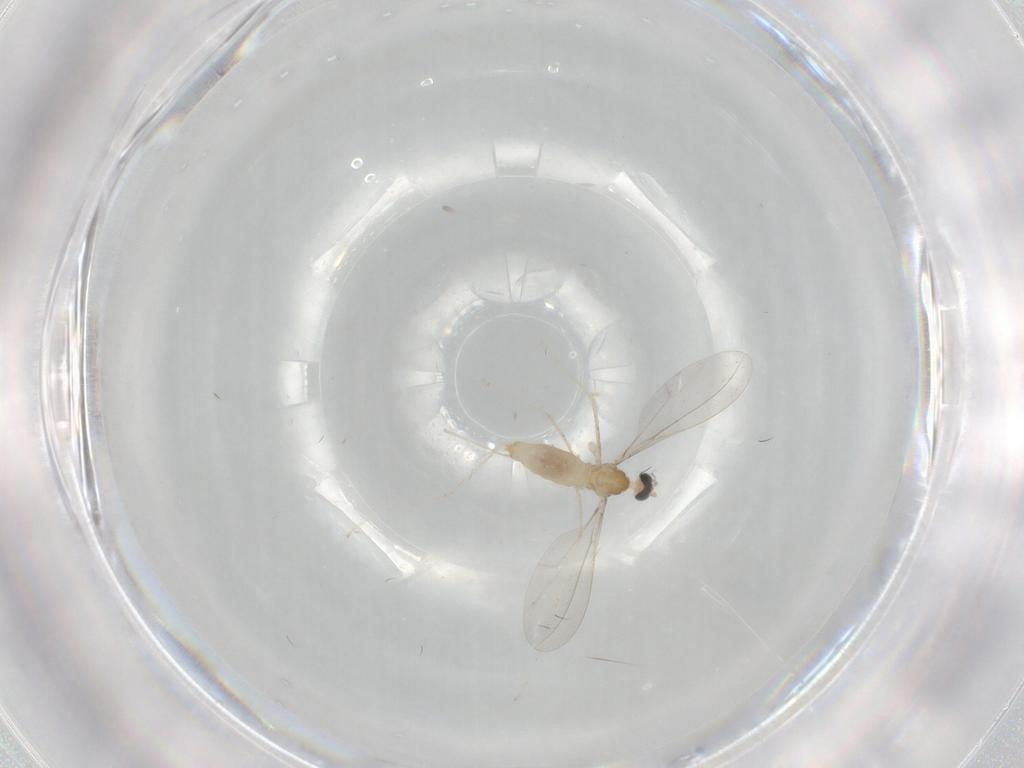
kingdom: Animalia
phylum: Arthropoda
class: Insecta
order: Diptera
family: Cecidomyiidae
